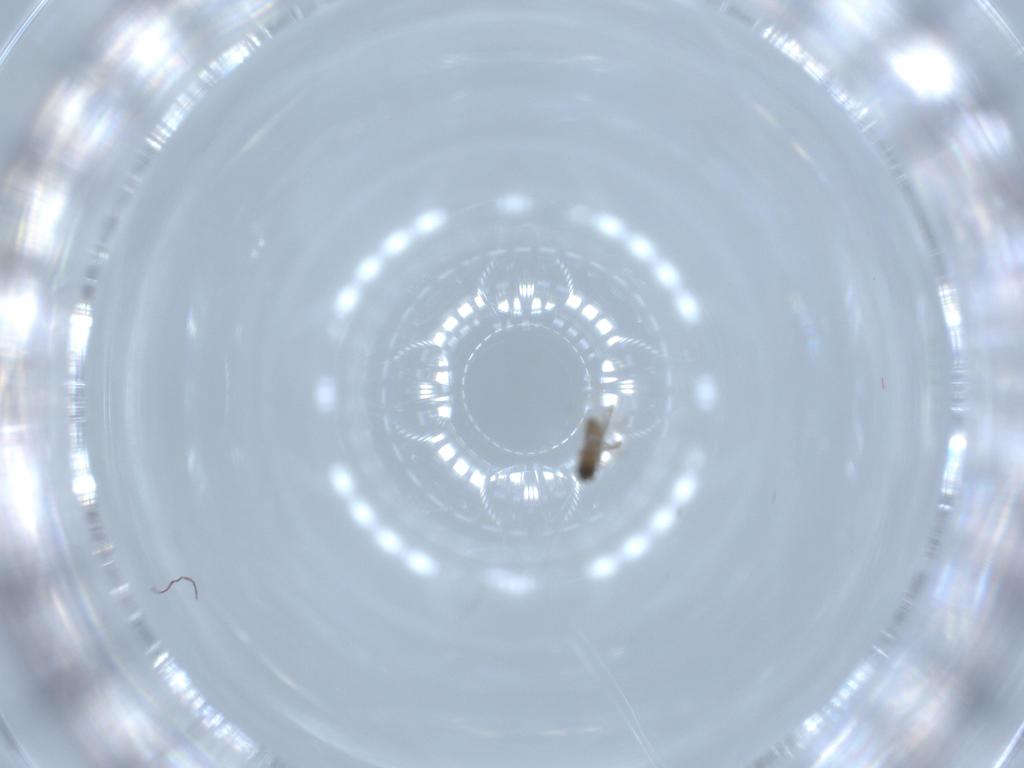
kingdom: Animalia
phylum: Arthropoda
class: Insecta
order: Diptera
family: Cecidomyiidae
